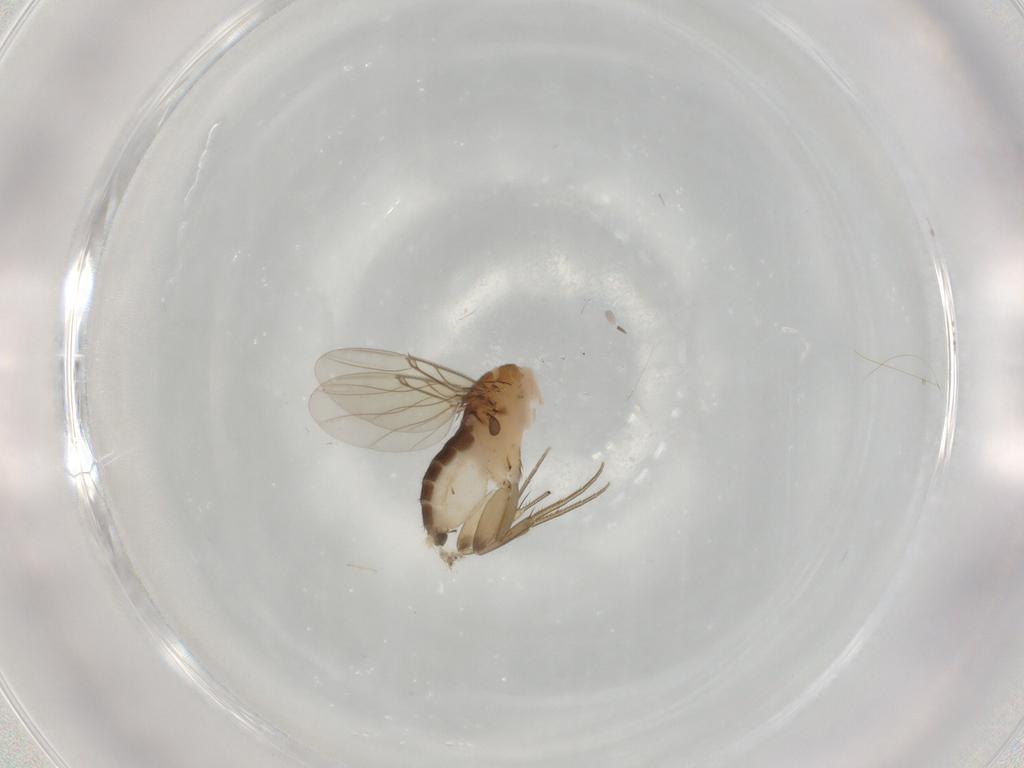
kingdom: Animalia
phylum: Arthropoda
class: Insecta
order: Diptera
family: Phoridae
